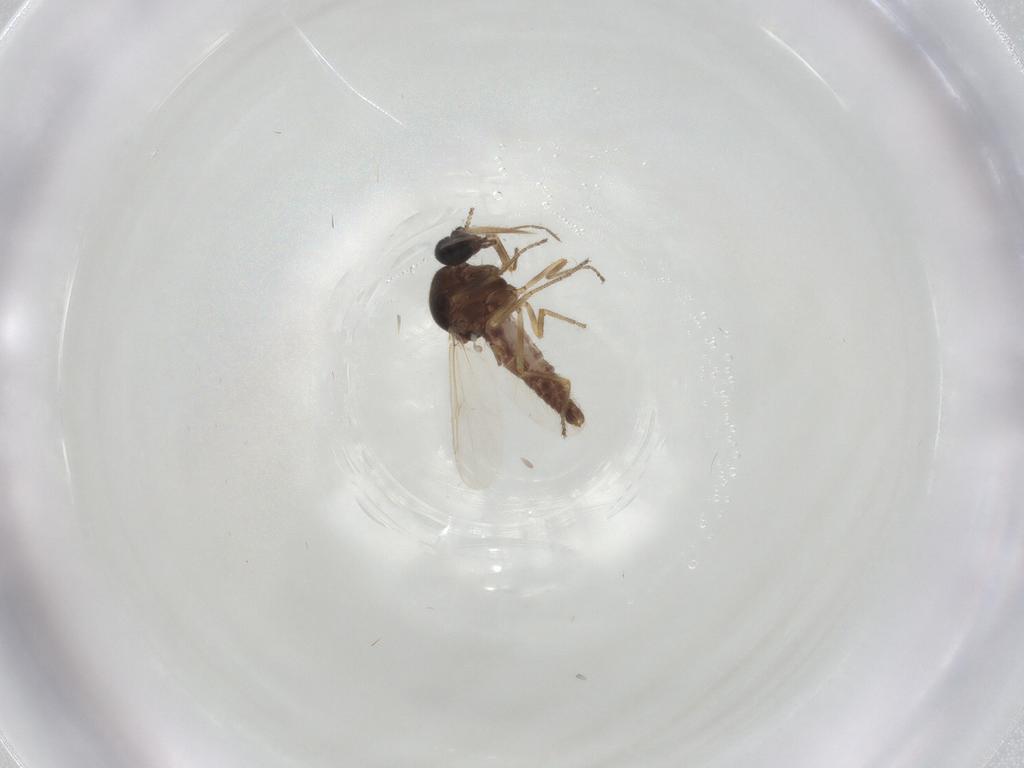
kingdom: Animalia
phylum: Arthropoda
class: Insecta
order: Diptera
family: Ceratopogonidae
